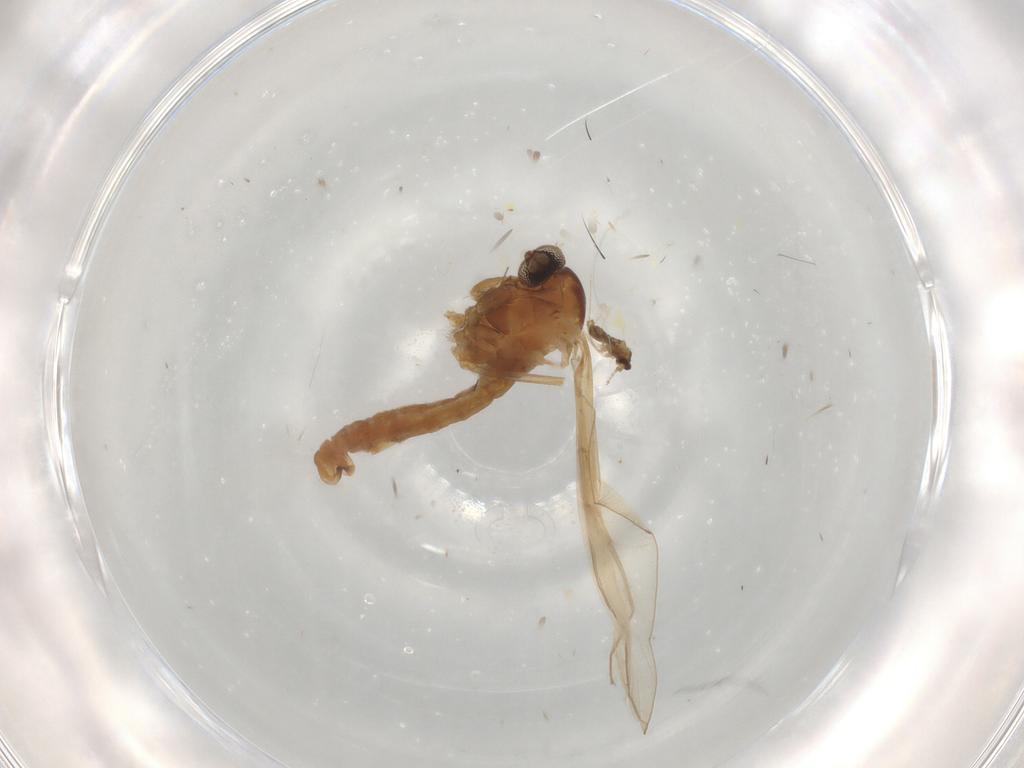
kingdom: Animalia
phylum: Arthropoda
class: Insecta
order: Diptera
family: Cecidomyiidae
